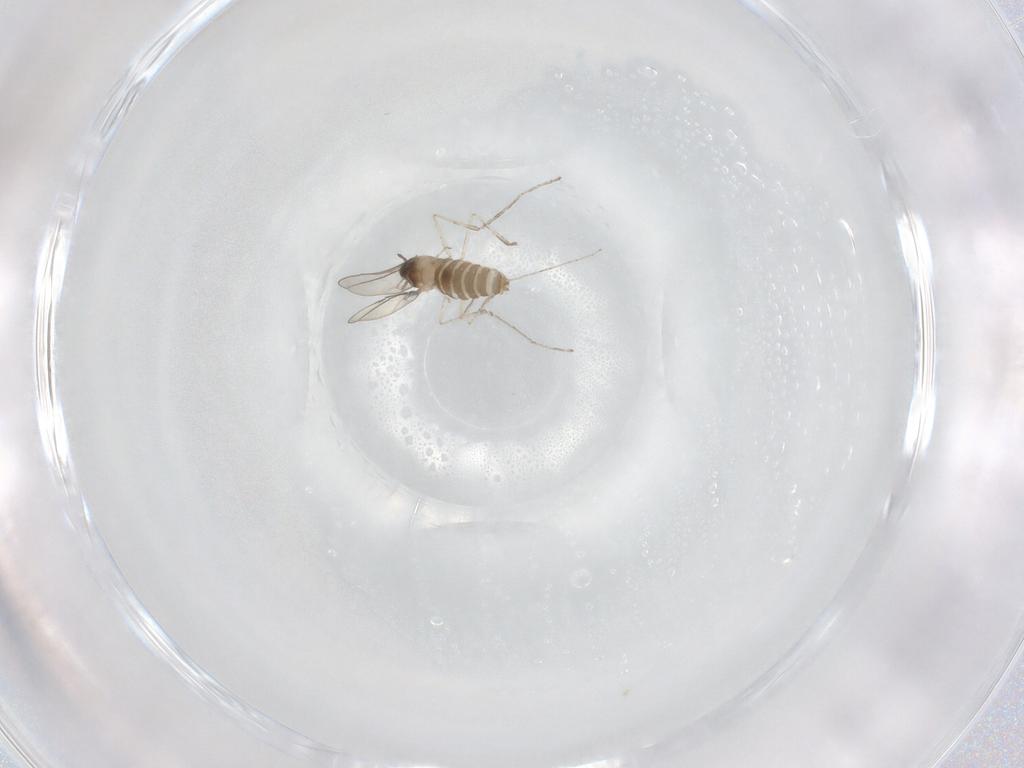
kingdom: Animalia
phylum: Arthropoda
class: Insecta
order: Diptera
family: Cecidomyiidae
